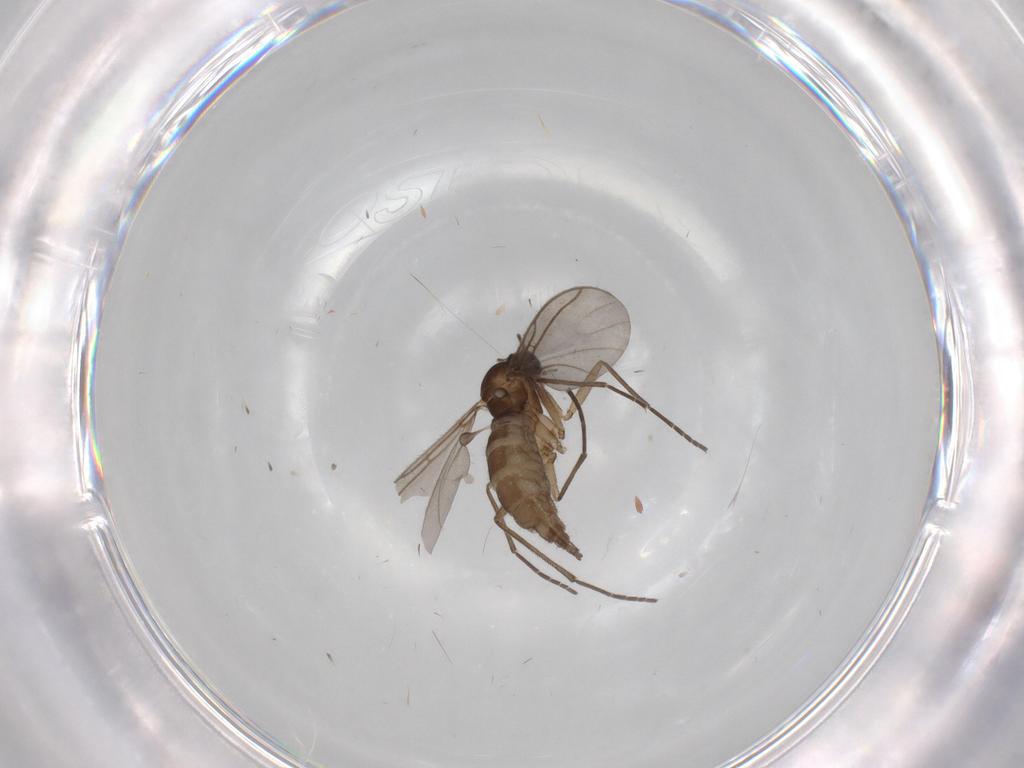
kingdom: Animalia
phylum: Arthropoda
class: Insecta
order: Diptera
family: Sciaridae
